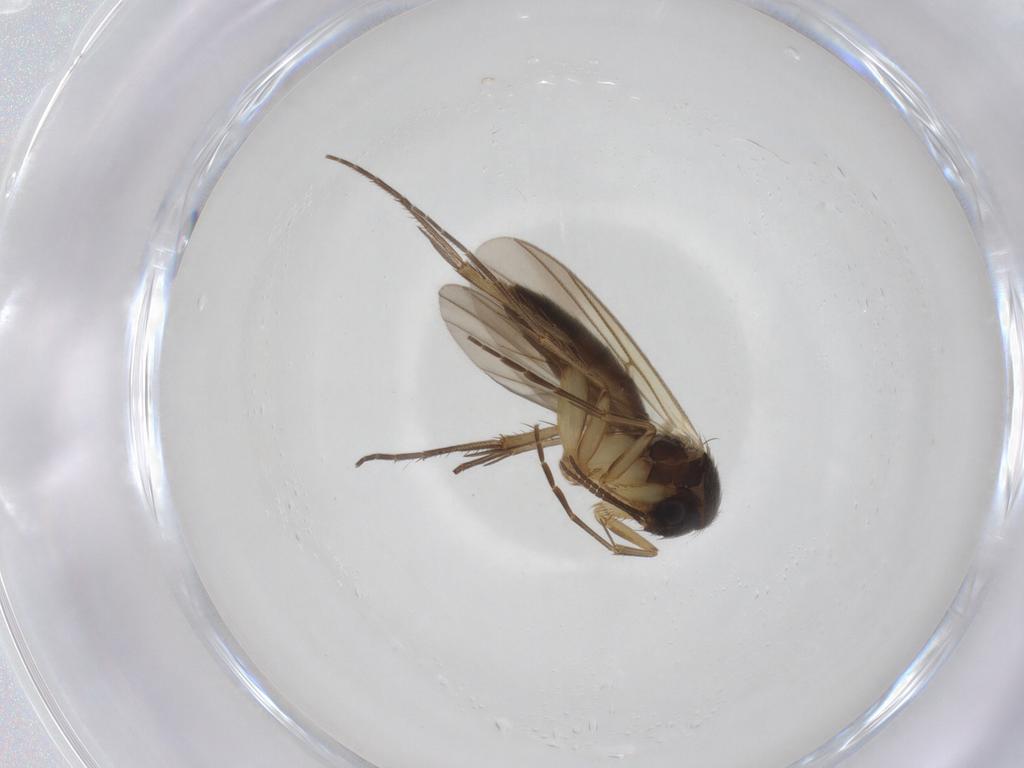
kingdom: Animalia
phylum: Arthropoda
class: Insecta
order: Diptera
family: Mycetophilidae
